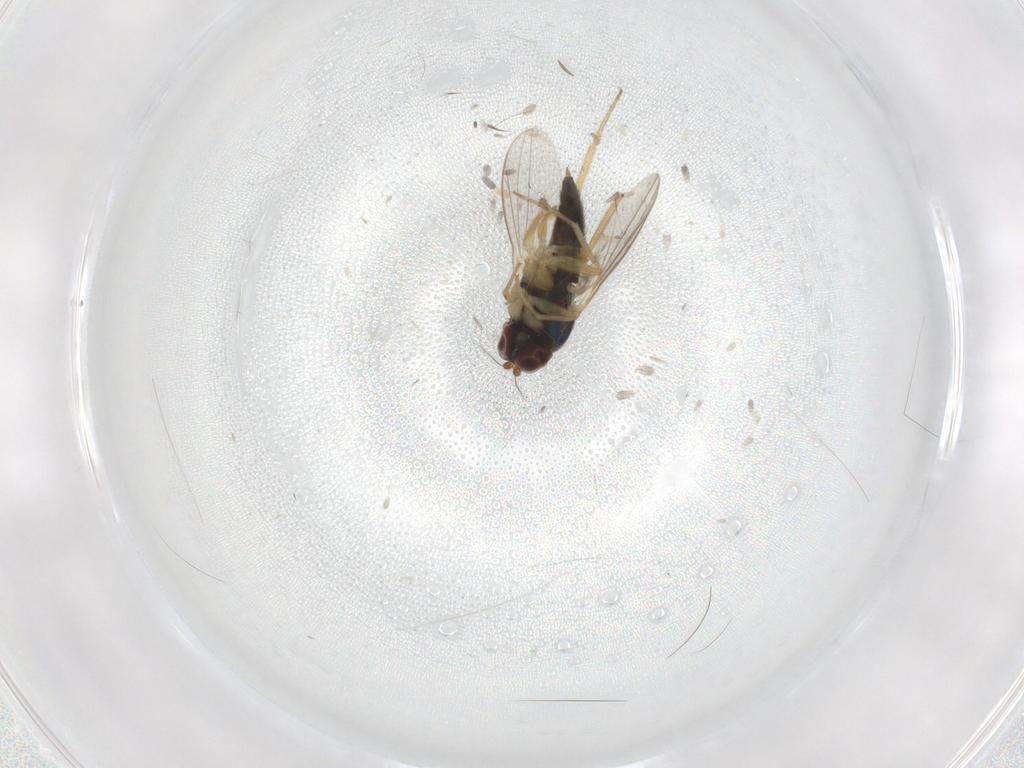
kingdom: Animalia
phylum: Arthropoda
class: Insecta
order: Diptera
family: Dolichopodidae
